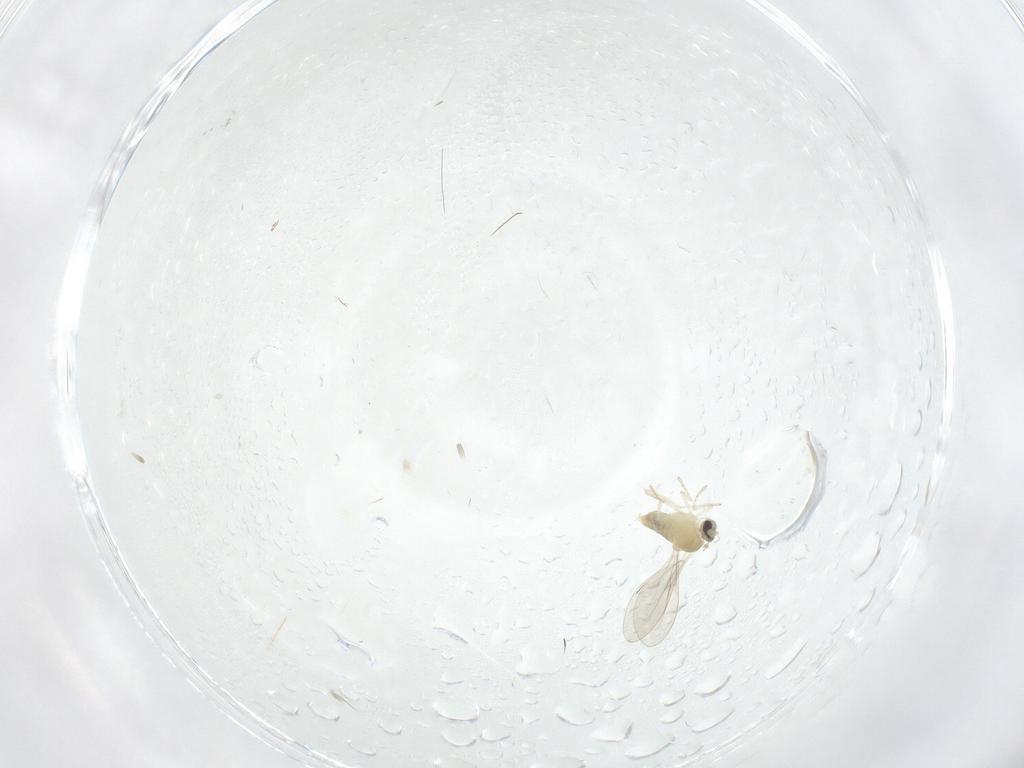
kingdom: Animalia
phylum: Arthropoda
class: Insecta
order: Diptera
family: Cecidomyiidae
